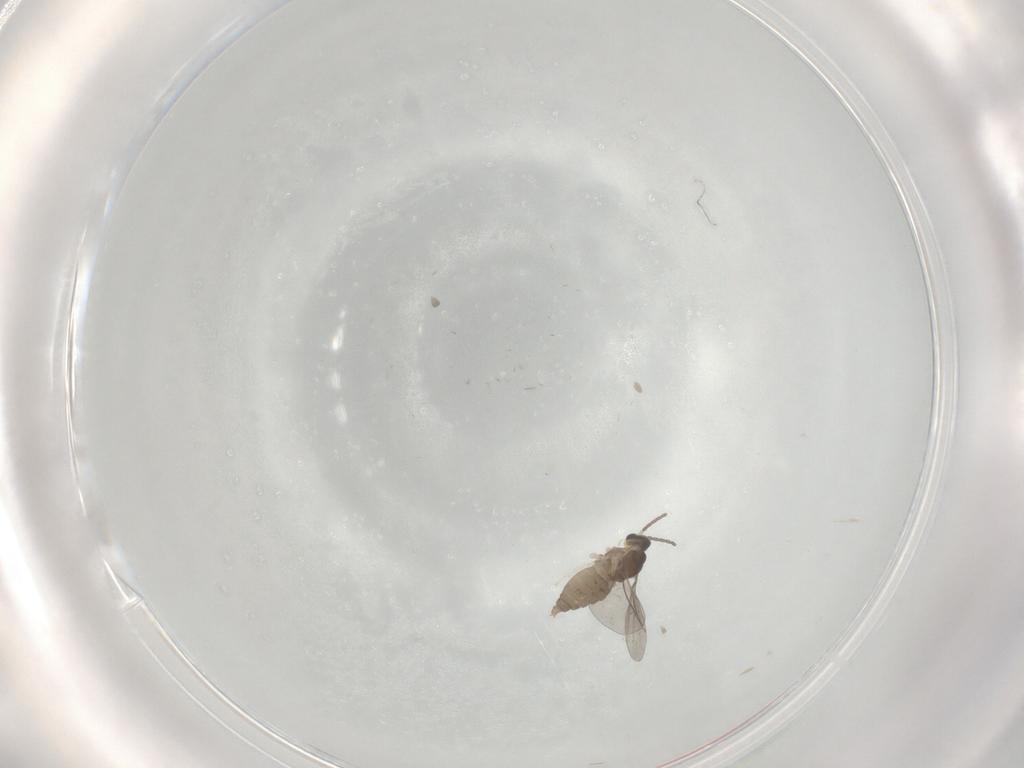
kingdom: Animalia
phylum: Arthropoda
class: Insecta
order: Diptera
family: Cecidomyiidae
